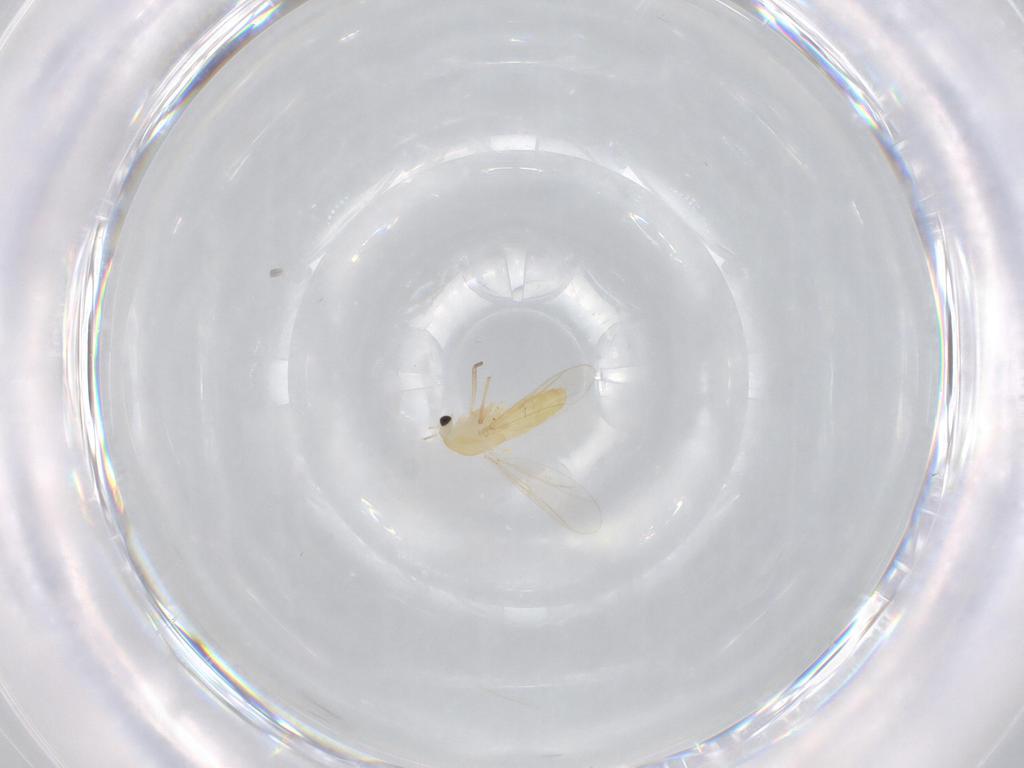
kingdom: Animalia
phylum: Arthropoda
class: Insecta
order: Diptera
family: Chironomidae
